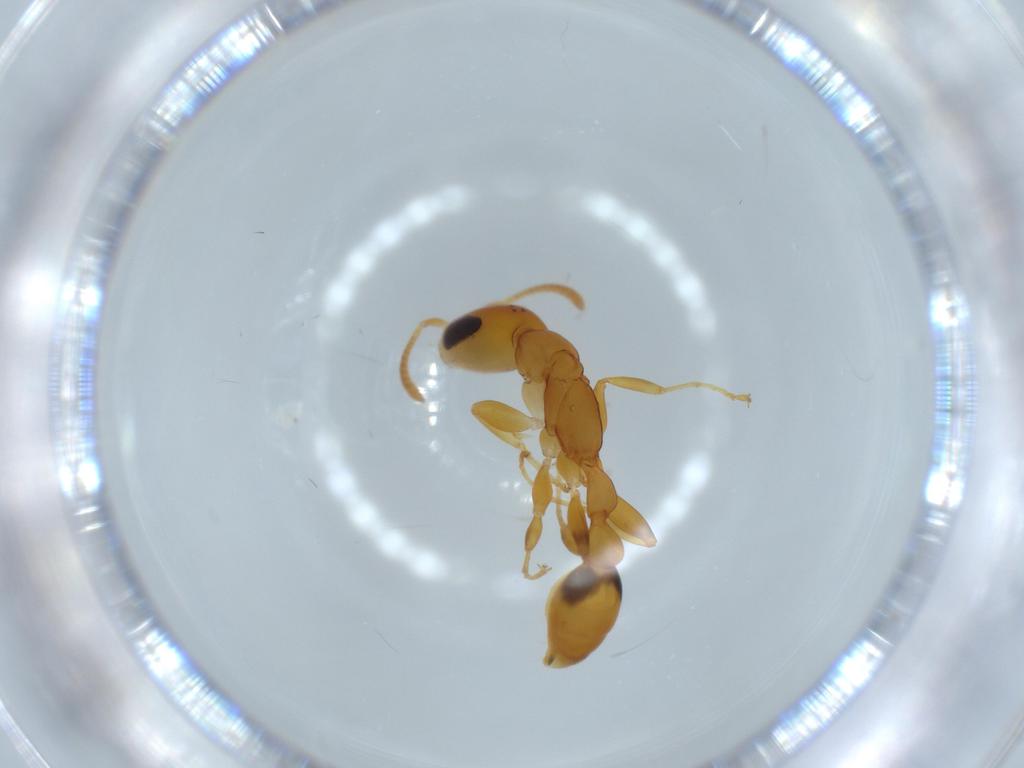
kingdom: Animalia
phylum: Arthropoda
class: Insecta
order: Hymenoptera
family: Formicidae
